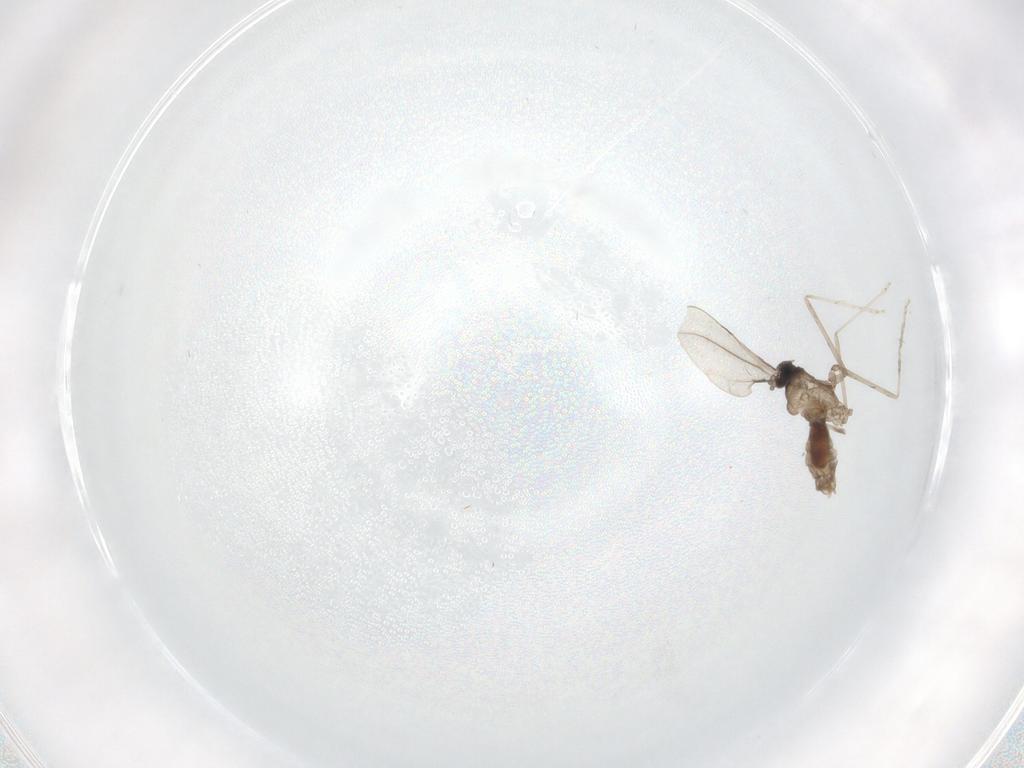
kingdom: Animalia
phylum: Arthropoda
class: Insecta
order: Diptera
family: Cecidomyiidae
